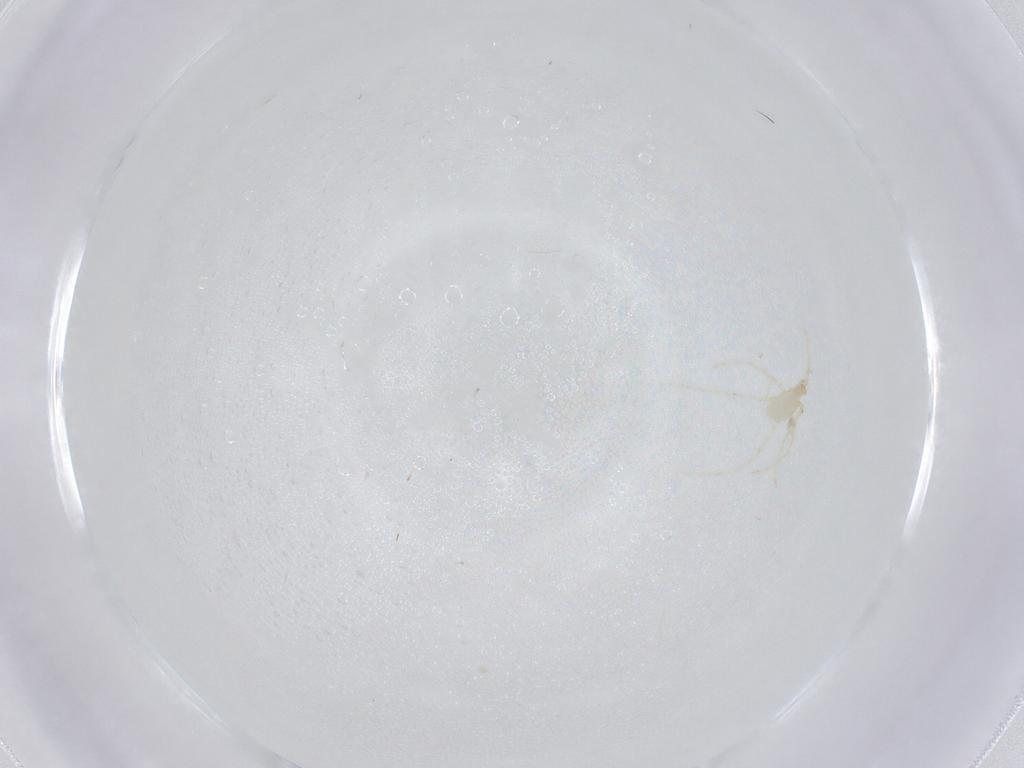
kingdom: Animalia
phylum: Arthropoda
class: Arachnida
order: Trombidiformes
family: Erythraeidae
